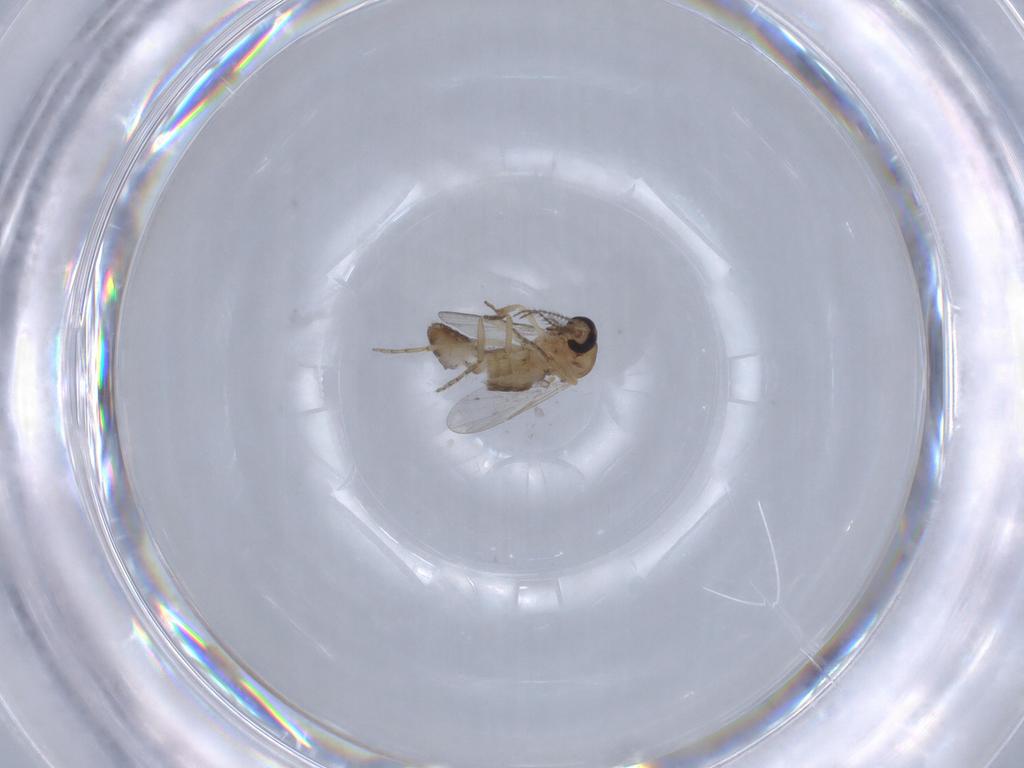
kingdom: Animalia
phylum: Arthropoda
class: Insecta
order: Diptera
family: Ceratopogonidae
